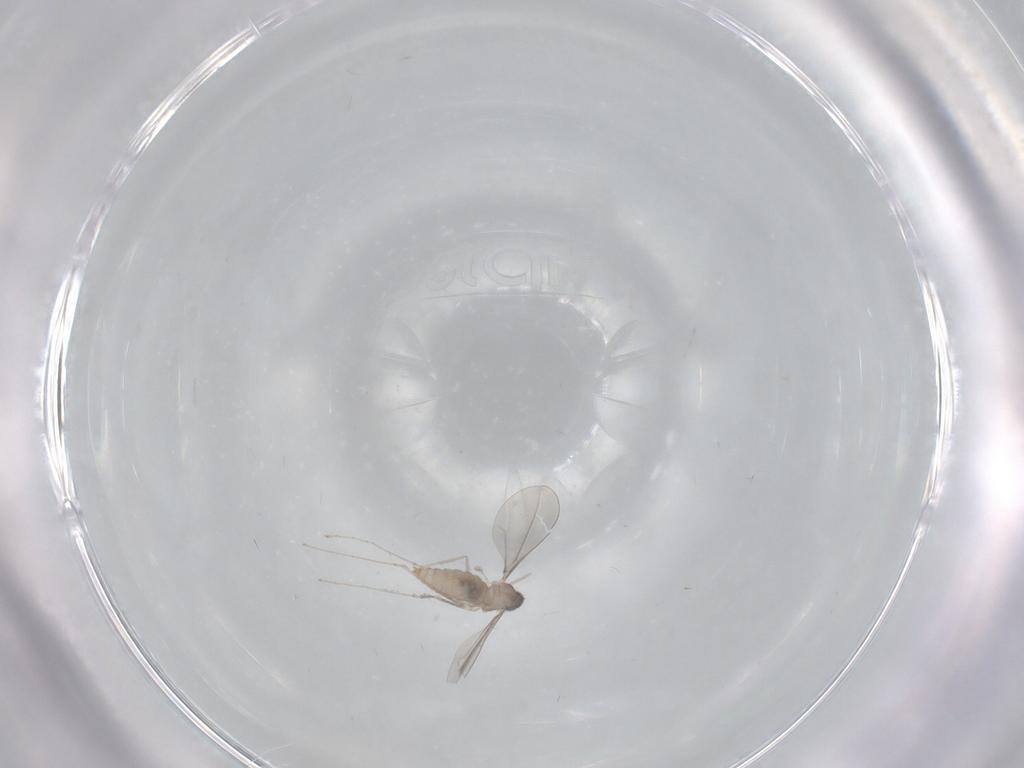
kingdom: Animalia
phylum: Arthropoda
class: Insecta
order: Diptera
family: Cecidomyiidae
